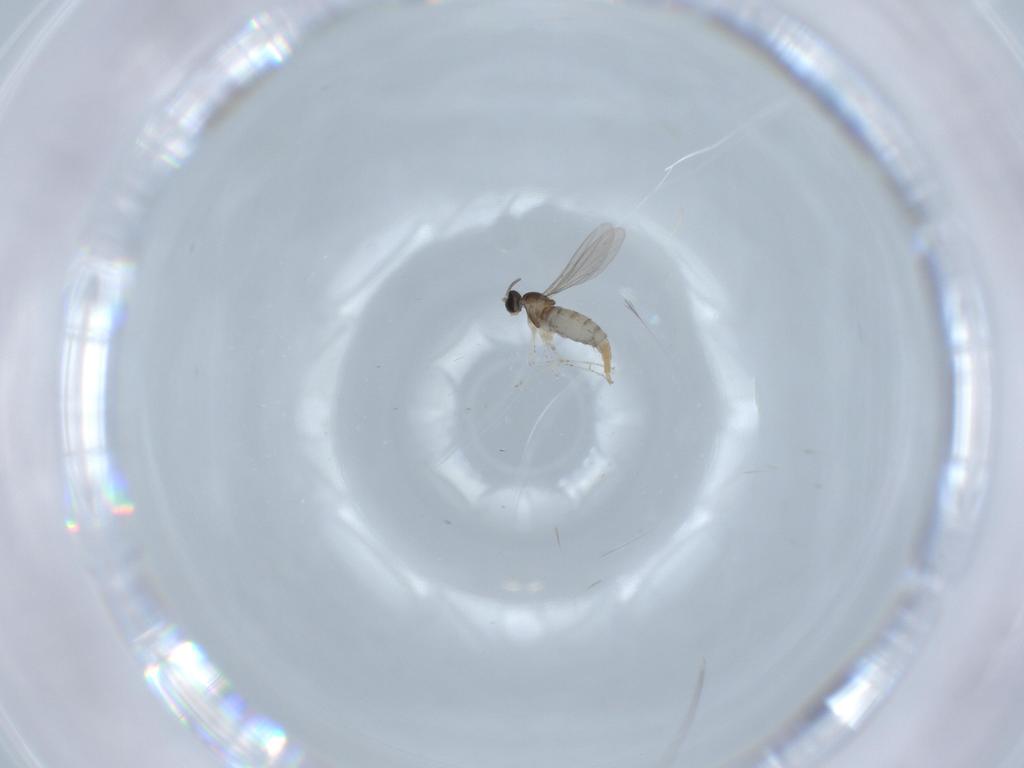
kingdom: Animalia
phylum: Arthropoda
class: Insecta
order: Diptera
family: Cecidomyiidae
